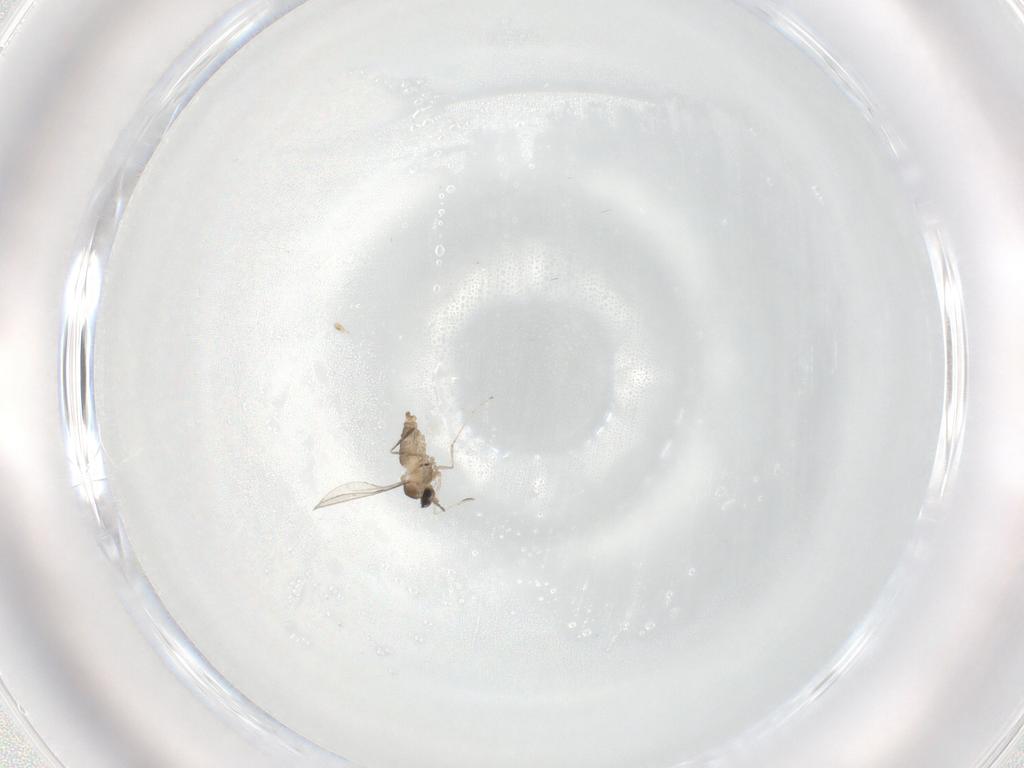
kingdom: Animalia
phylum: Arthropoda
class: Insecta
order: Diptera
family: Cecidomyiidae
